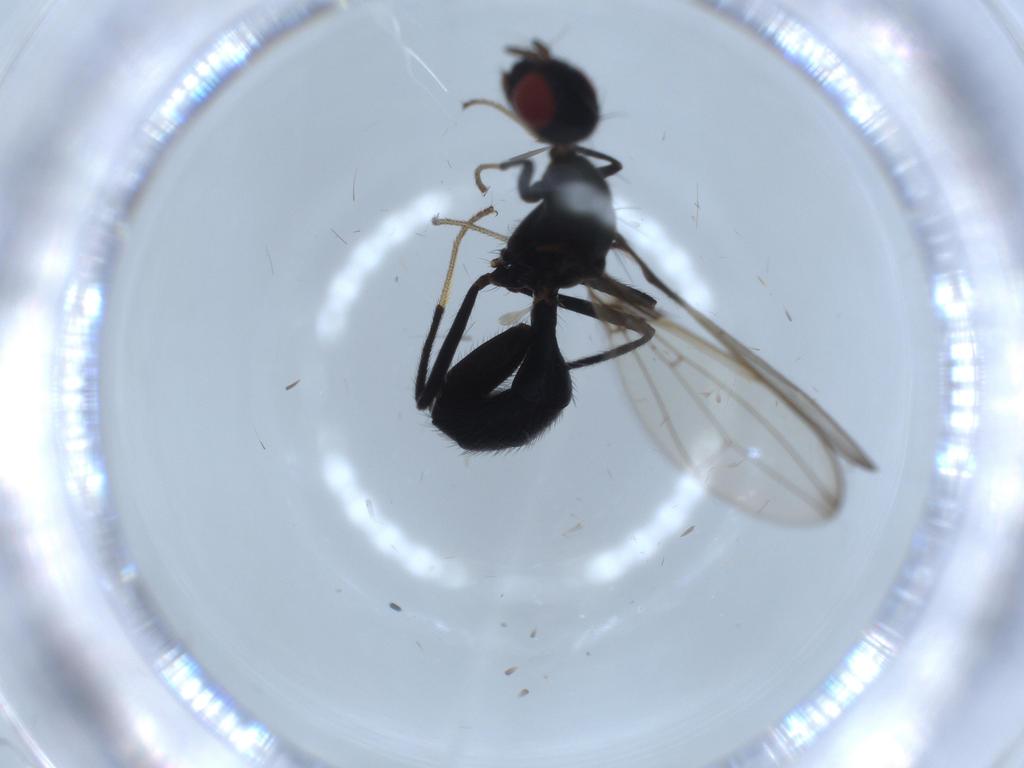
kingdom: Animalia
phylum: Arthropoda
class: Insecta
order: Diptera
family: Richardiidae
